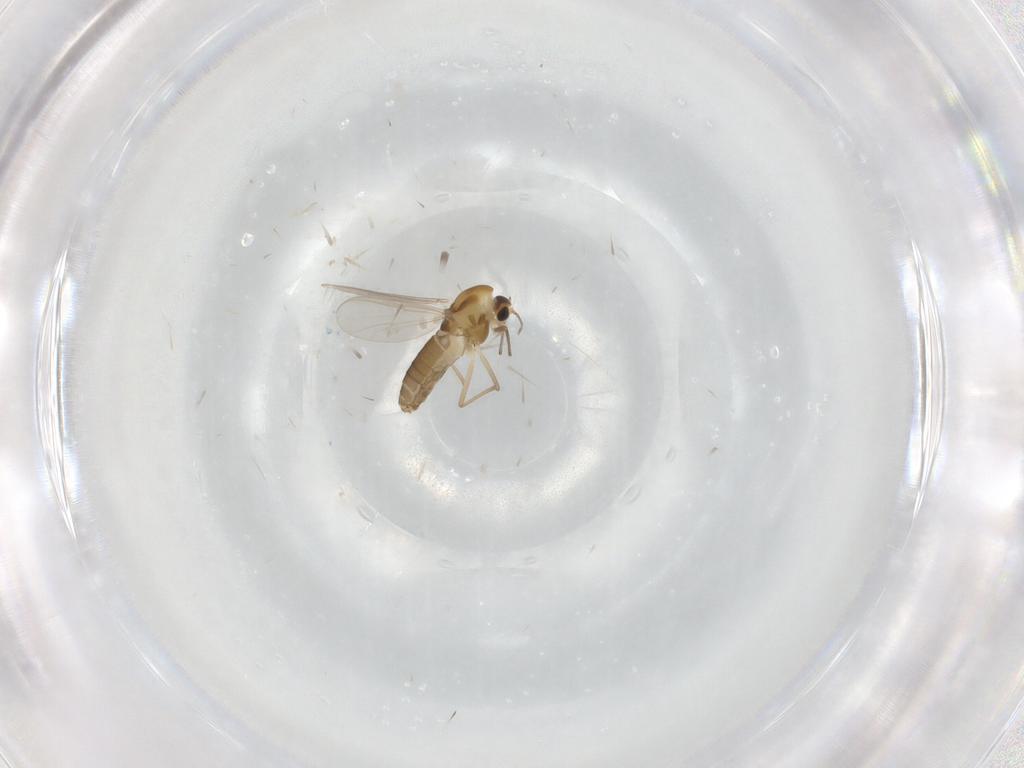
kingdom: Animalia
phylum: Arthropoda
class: Insecta
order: Diptera
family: Chironomidae
